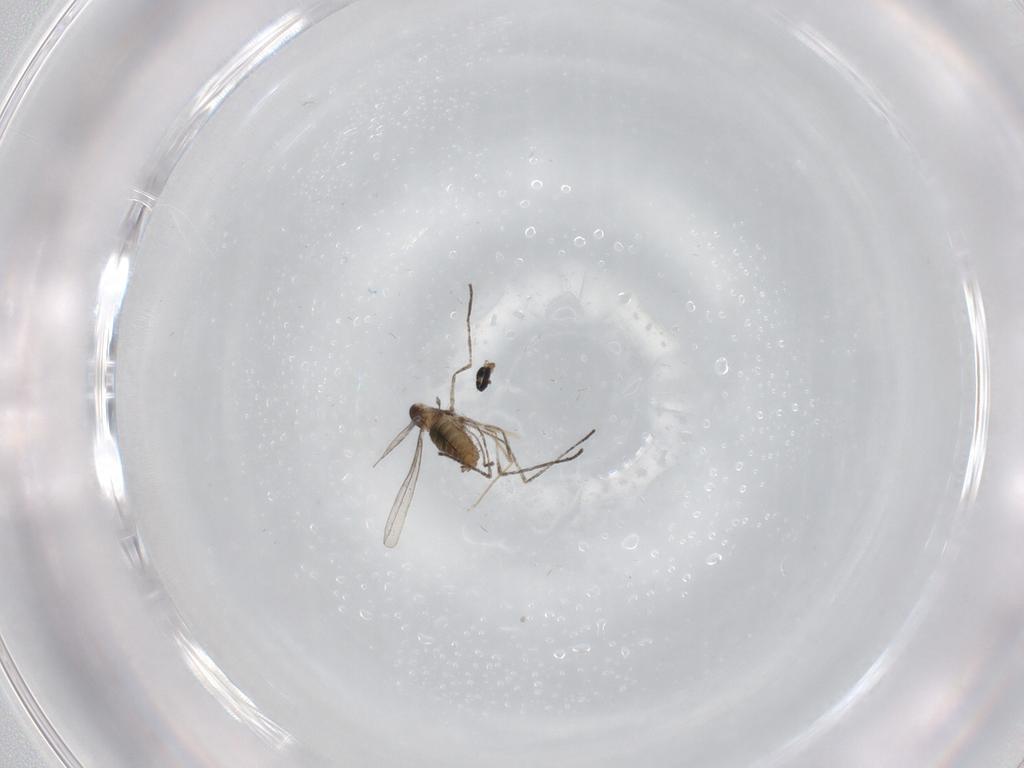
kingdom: Animalia
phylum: Arthropoda
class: Insecta
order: Diptera
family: Cecidomyiidae
